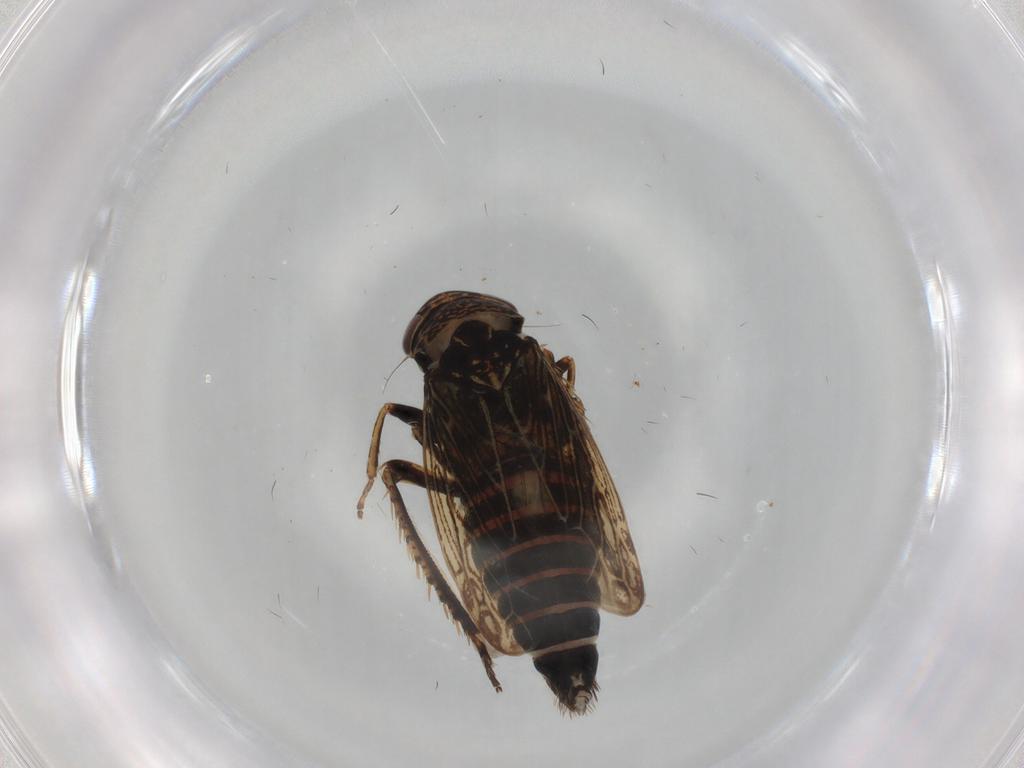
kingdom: Animalia
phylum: Arthropoda
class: Insecta
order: Hemiptera
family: Cicadellidae
